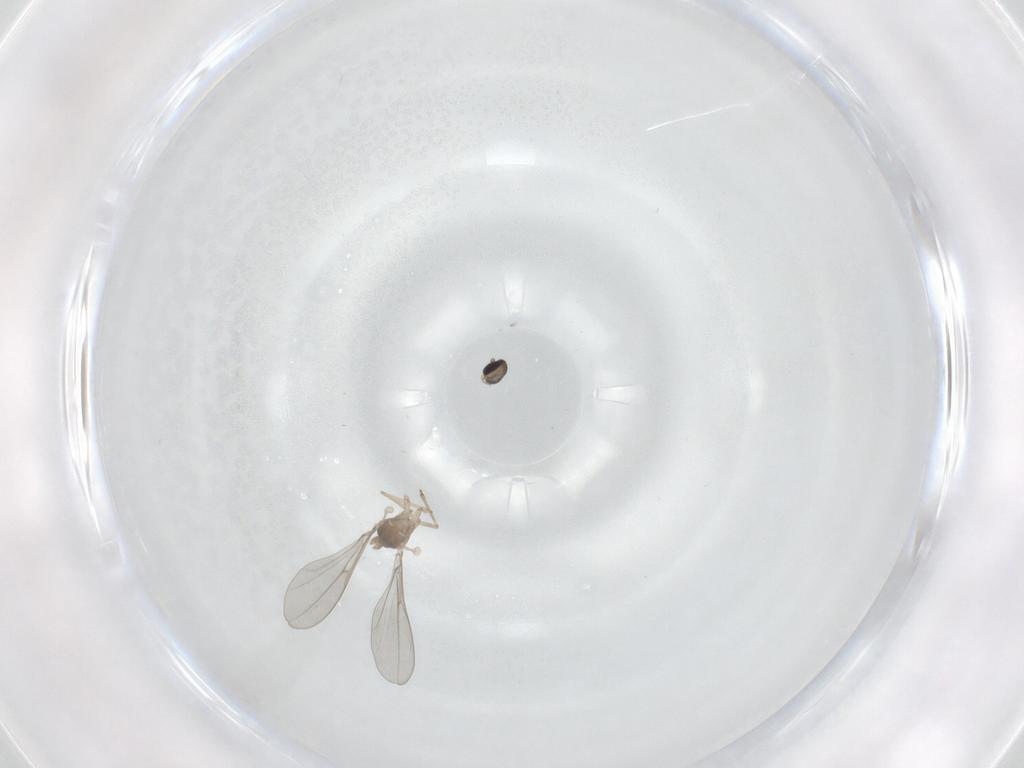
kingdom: Animalia
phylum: Arthropoda
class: Insecta
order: Diptera
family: Cecidomyiidae
